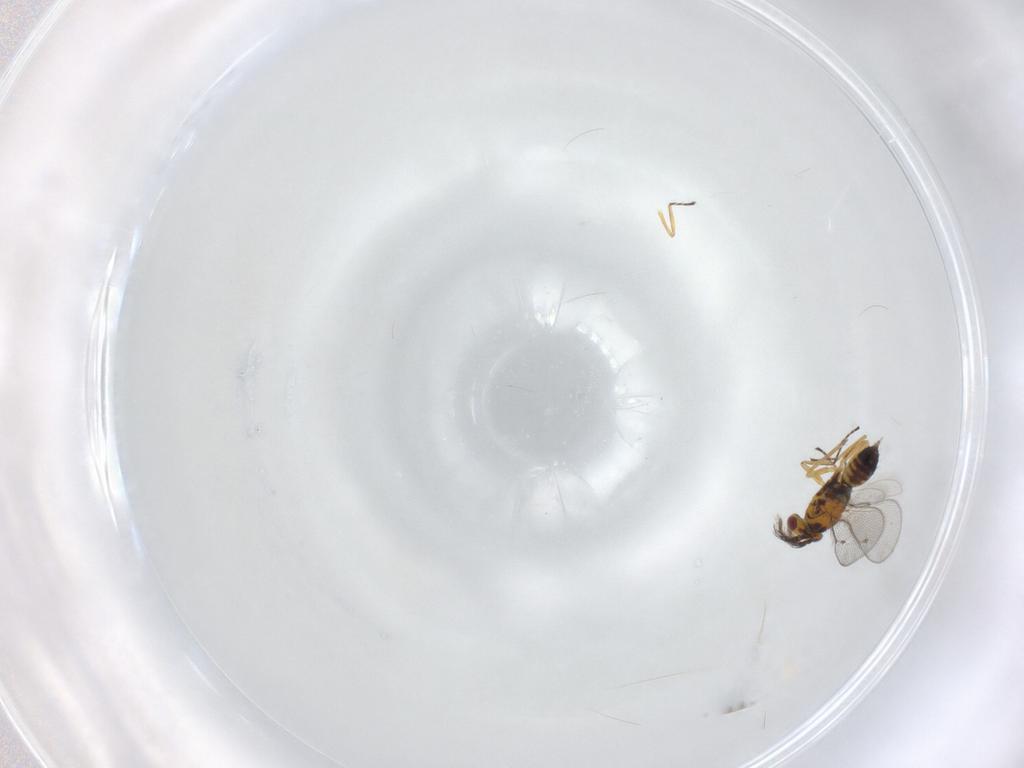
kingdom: Animalia
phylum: Arthropoda
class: Insecta
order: Hymenoptera
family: Eulophidae
